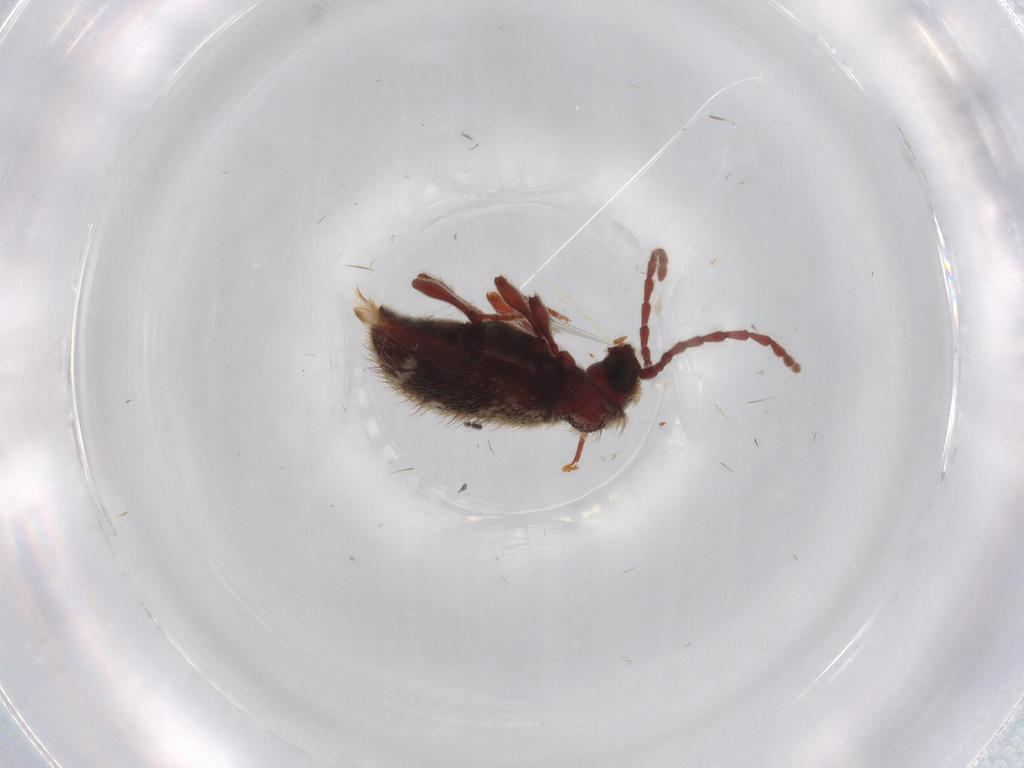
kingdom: Animalia
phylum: Arthropoda
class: Insecta
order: Coleoptera
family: Ptinidae
